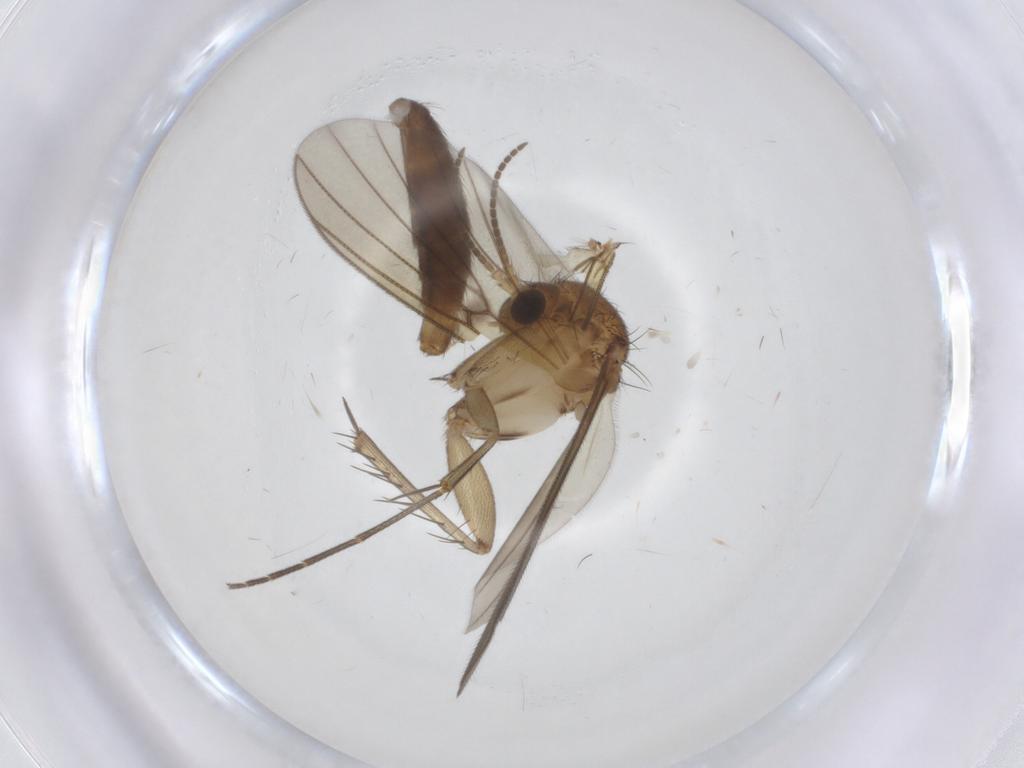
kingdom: Animalia
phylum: Arthropoda
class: Insecta
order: Diptera
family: Mycetophilidae
